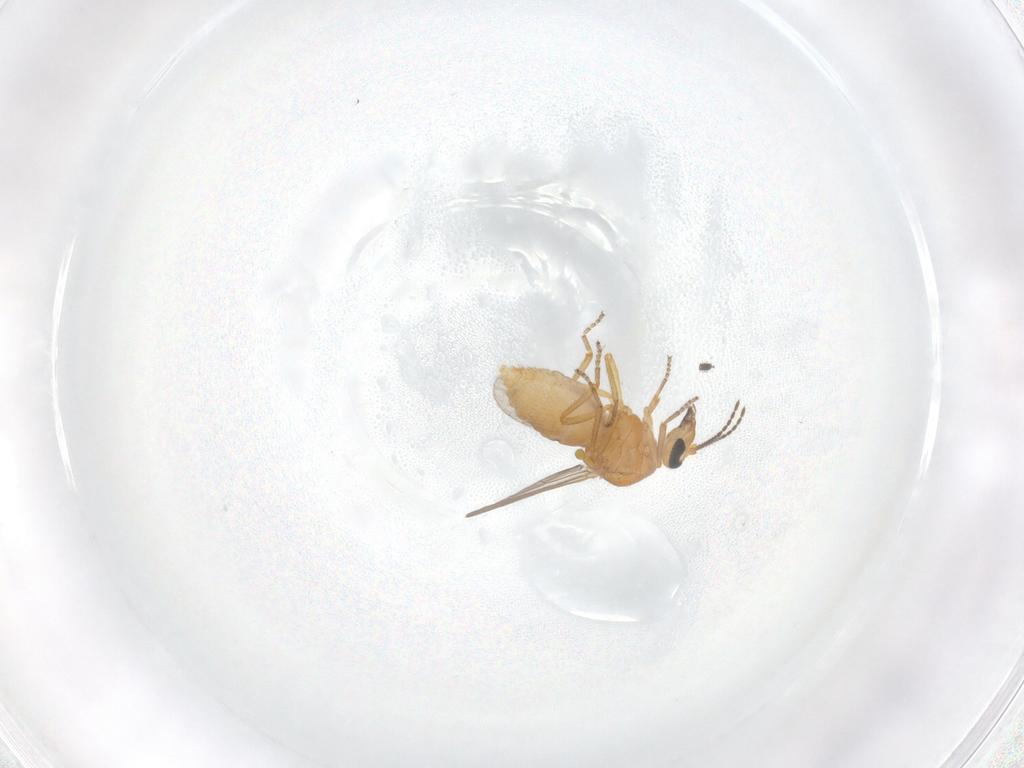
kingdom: Animalia
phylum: Arthropoda
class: Insecta
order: Diptera
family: Ceratopogonidae
